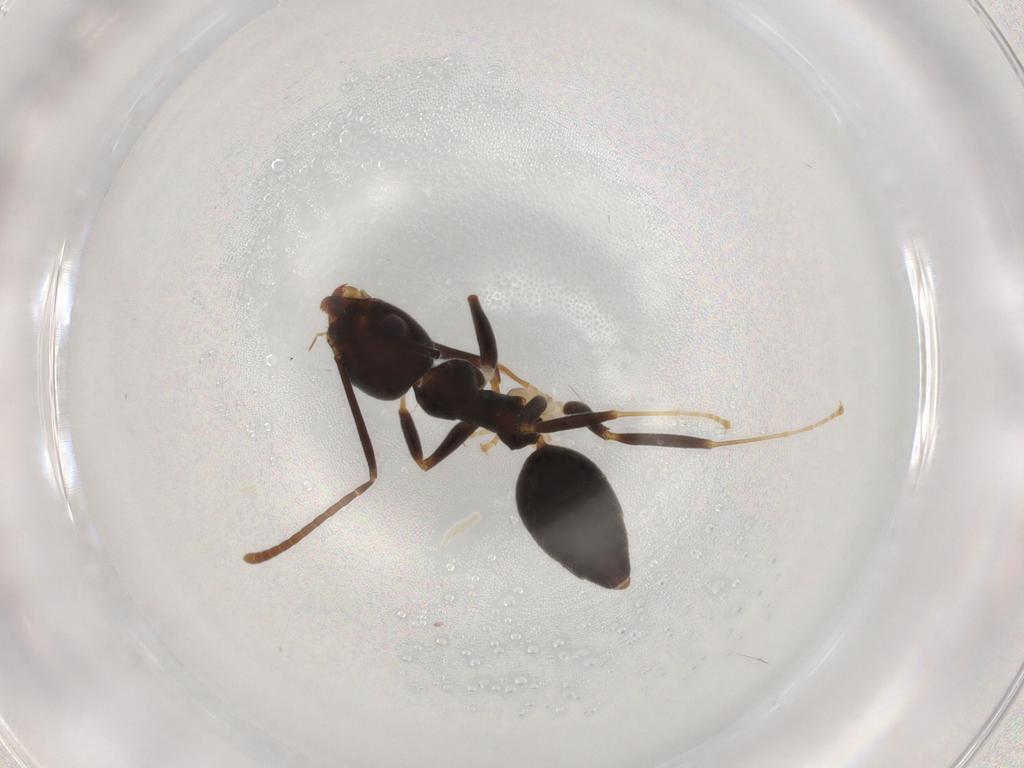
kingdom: Animalia
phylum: Arthropoda
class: Insecta
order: Hymenoptera
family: Formicidae
